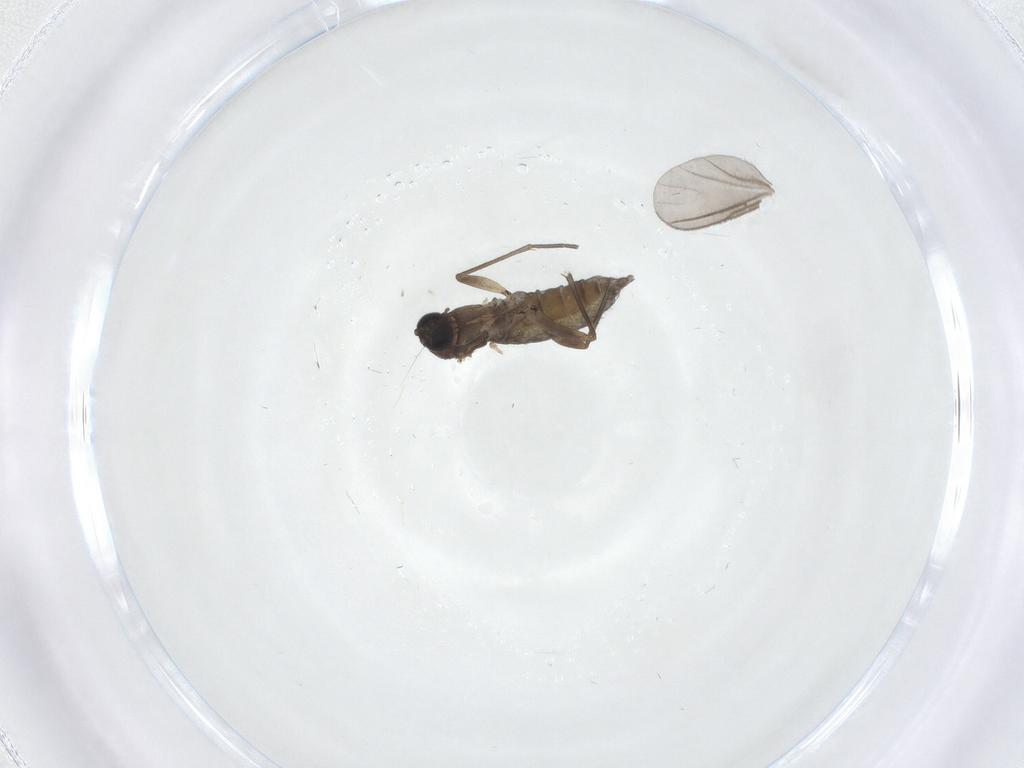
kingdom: Animalia
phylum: Arthropoda
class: Insecta
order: Diptera
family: Sciaridae
